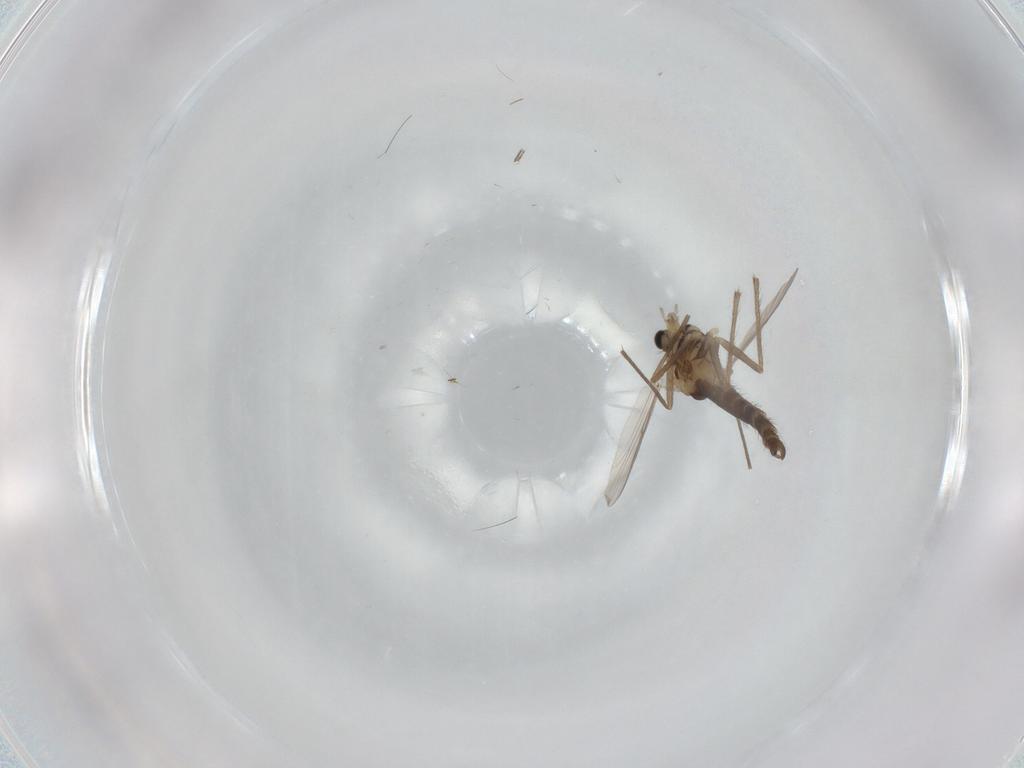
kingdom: Animalia
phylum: Arthropoda
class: Insecta
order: Diptera
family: Chironomidae
